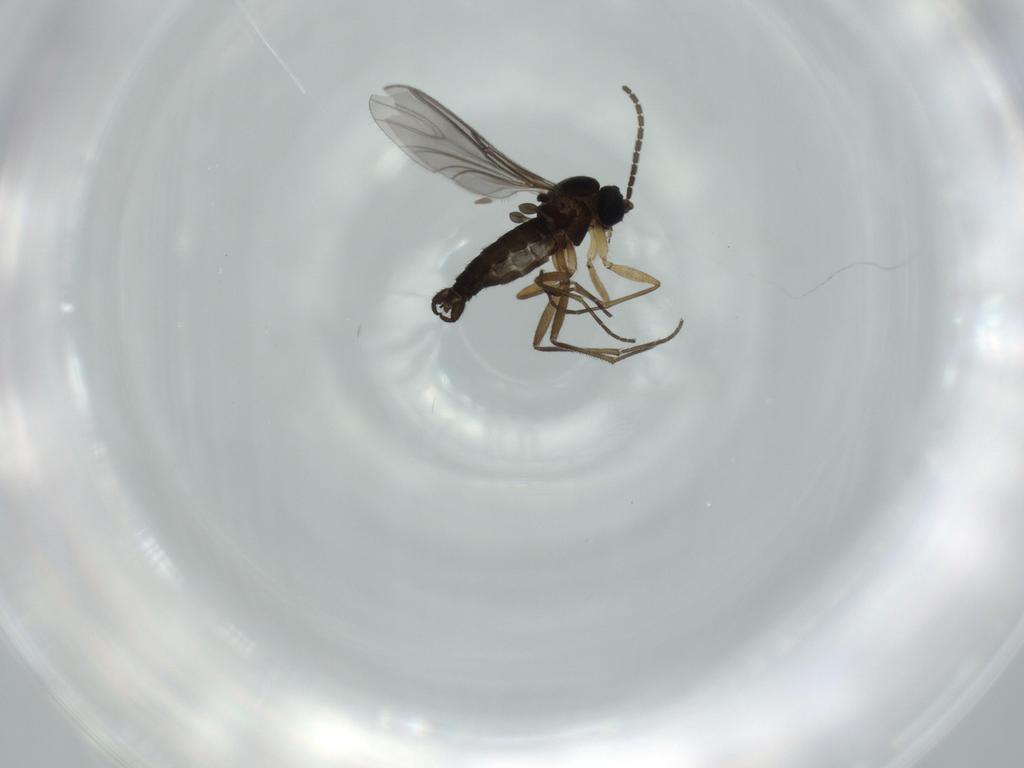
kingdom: Animalia
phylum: Arthropoda
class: Insecta
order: Diptera
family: Sciaridae
